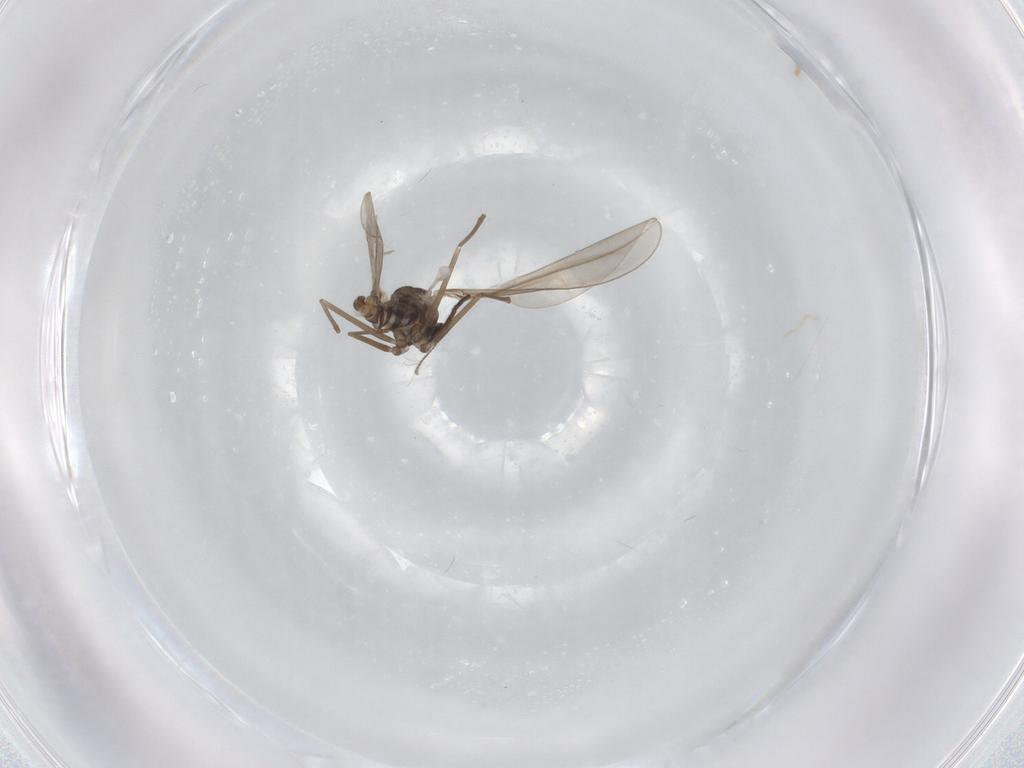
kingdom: Animalia
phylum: Arthropoda
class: Insecta
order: Diptera
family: Cecidomyiidae
